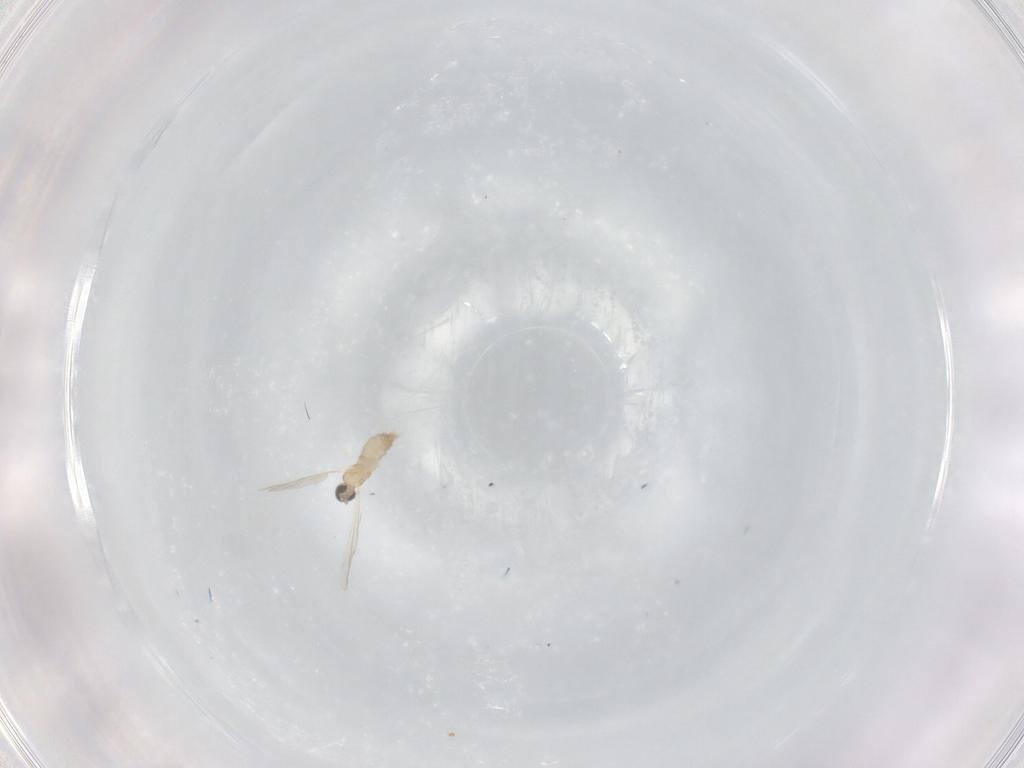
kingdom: Animalia
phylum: Arthropoda
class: Insecta
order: Diptera
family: Cecidomyiidae
